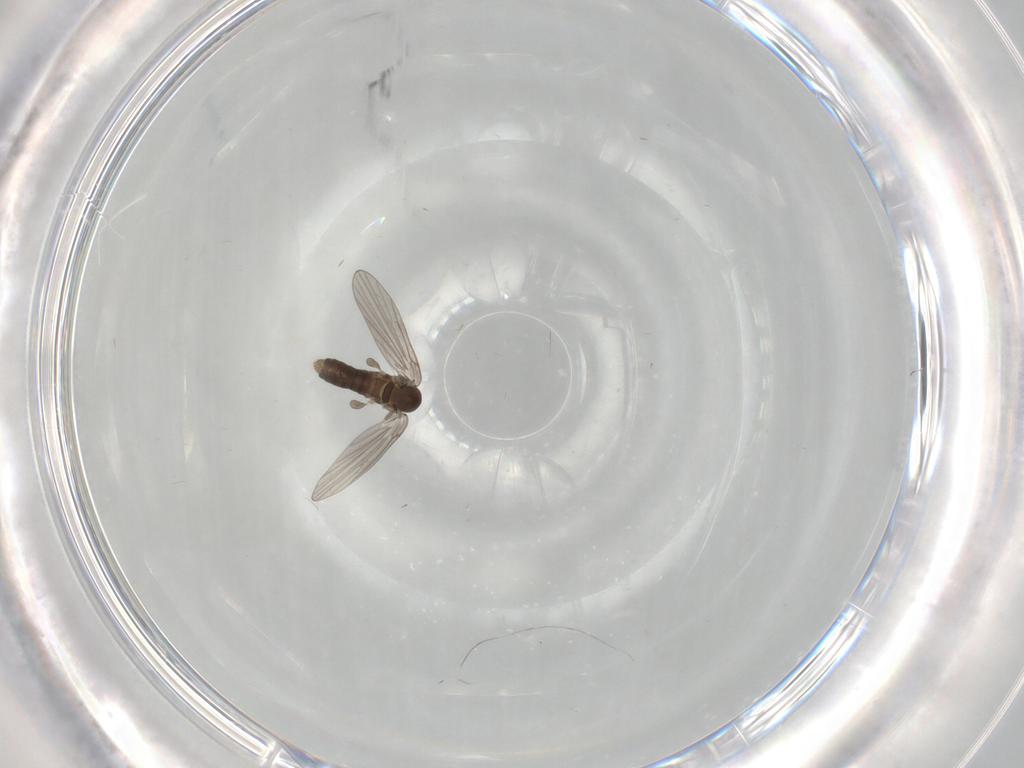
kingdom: Animalia
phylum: Arthropoda
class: Insecta
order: Diptera
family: Psychodidae
